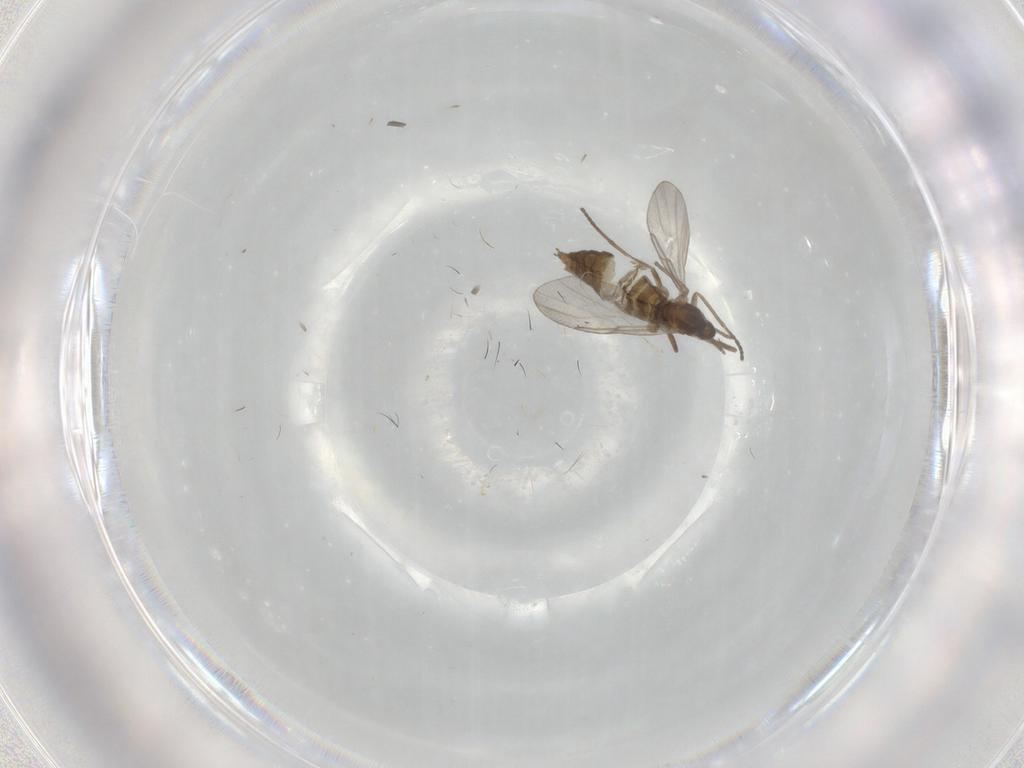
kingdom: Animalia
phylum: Arthropoda
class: Insecta
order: Diptera
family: Cecidomyiidae
